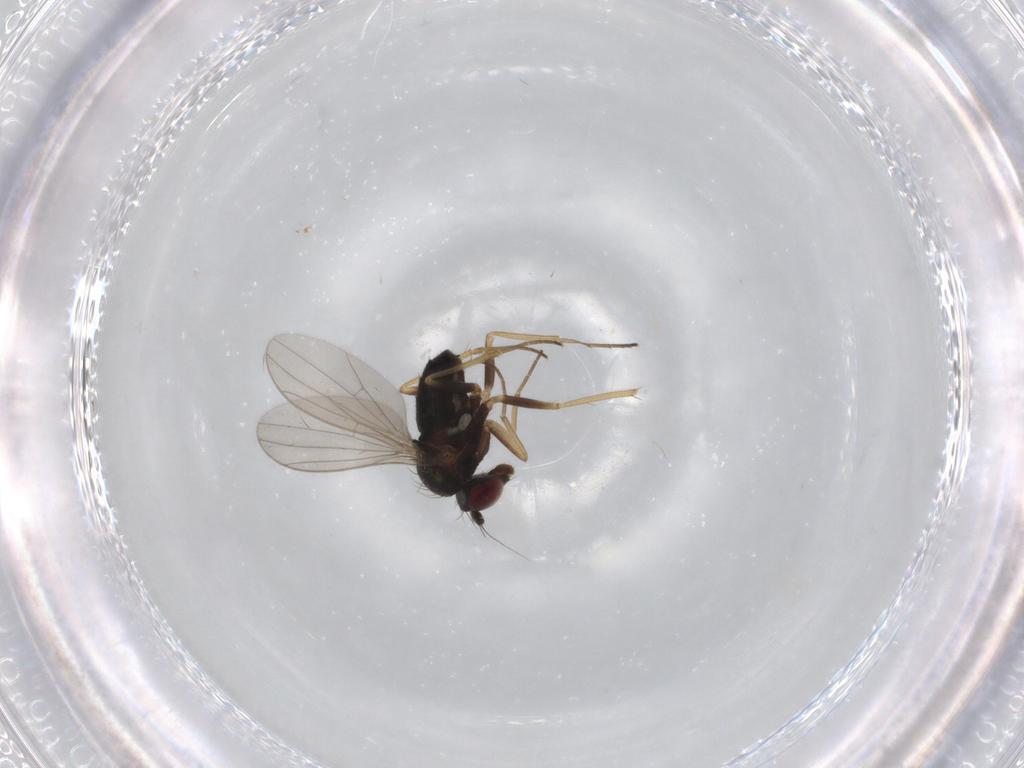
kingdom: Animalia
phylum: Arthropoda
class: Insecta
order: Diptera
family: Dolichopodidae
